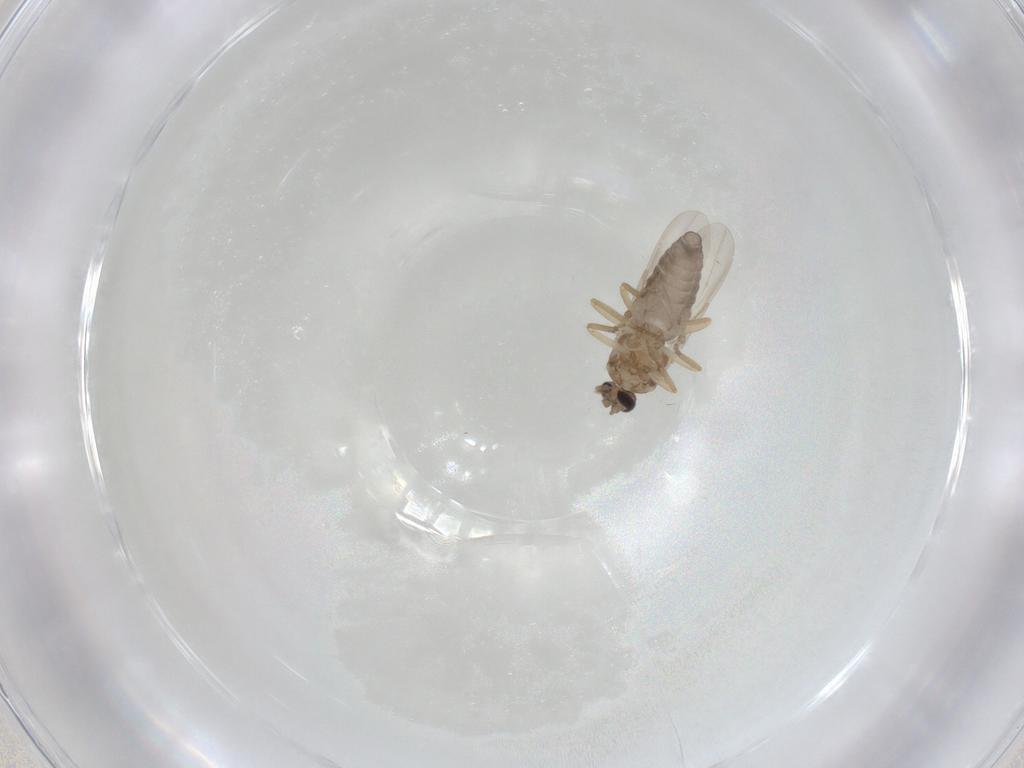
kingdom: Animalia
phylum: Arthropoda
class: Insecta
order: Diptera
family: Ceratopogonidae
